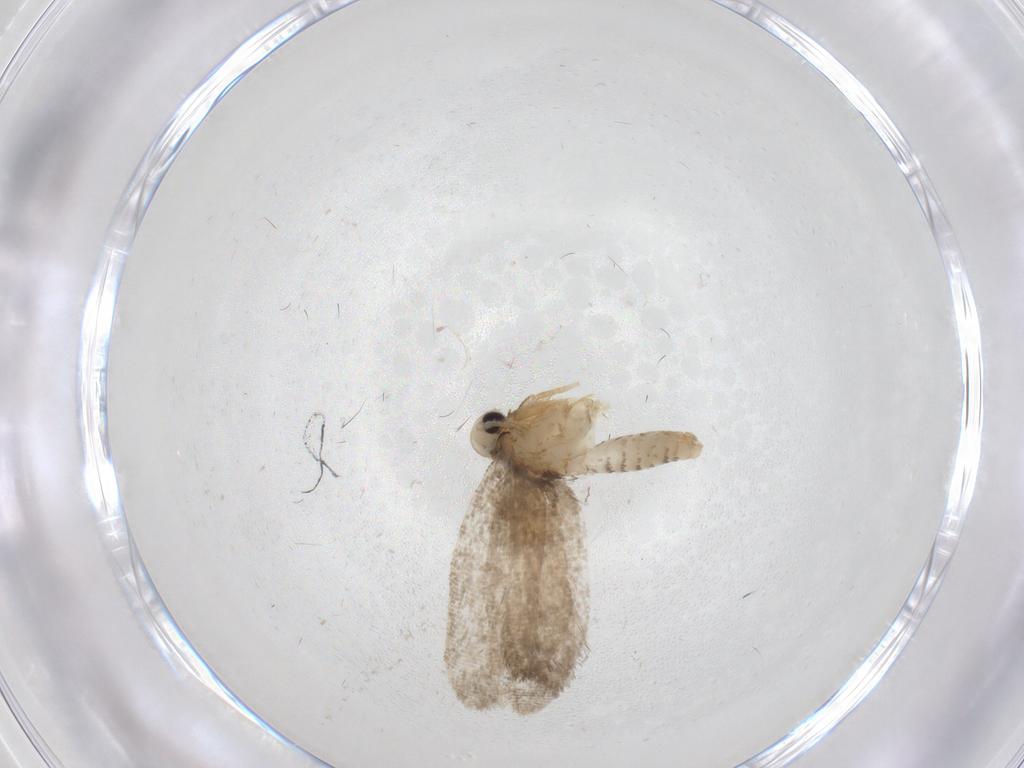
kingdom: Animalia
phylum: Arthropoda
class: Insecta
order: Lepidoptera
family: Psychidae
